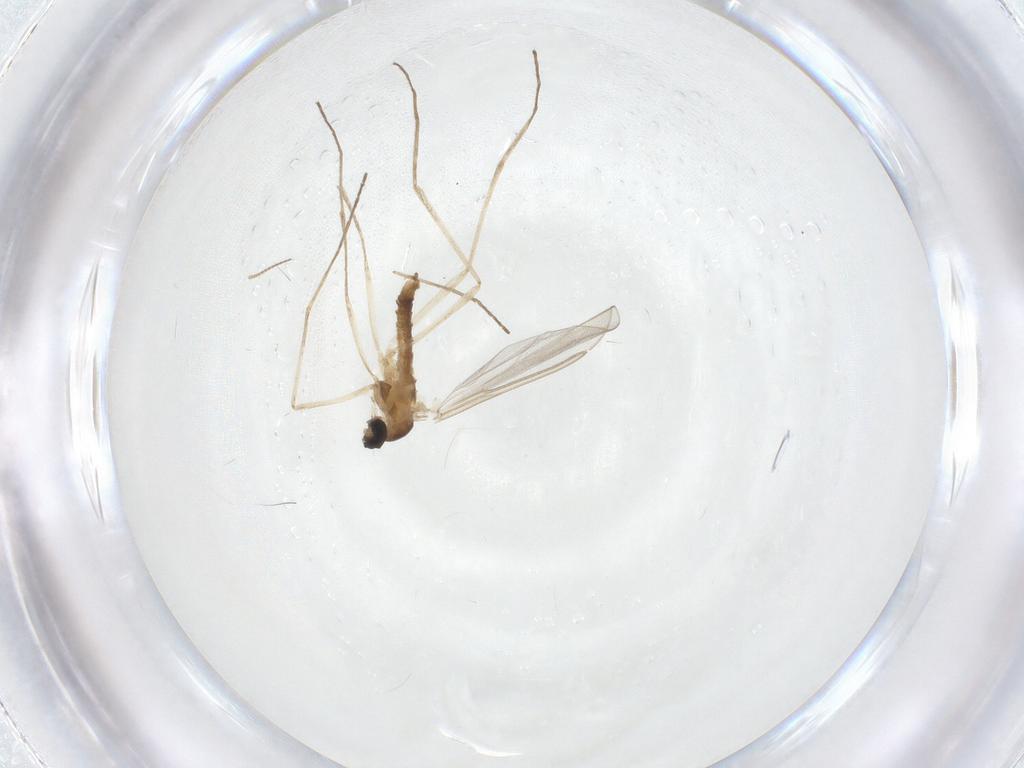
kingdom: Animalia
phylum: Arthropoda
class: Insecta
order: Diptera
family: Cecidomyiidae
